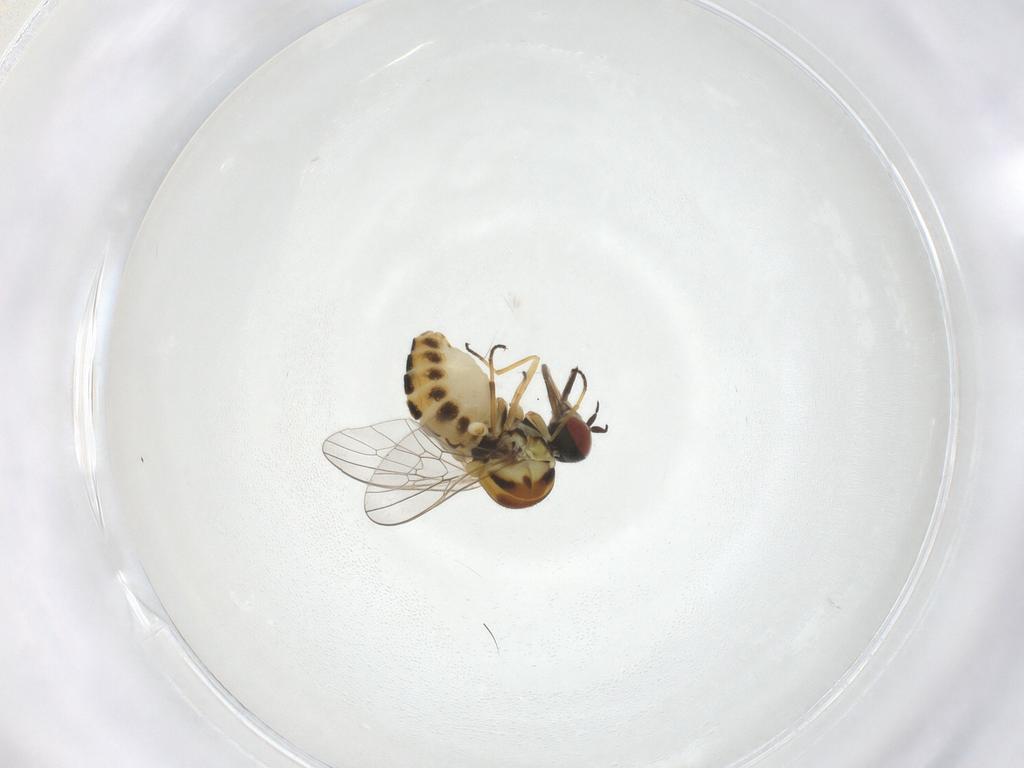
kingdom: Animalia
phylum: Arthropoda
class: Insecta
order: Diptera
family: Bombyliidae
